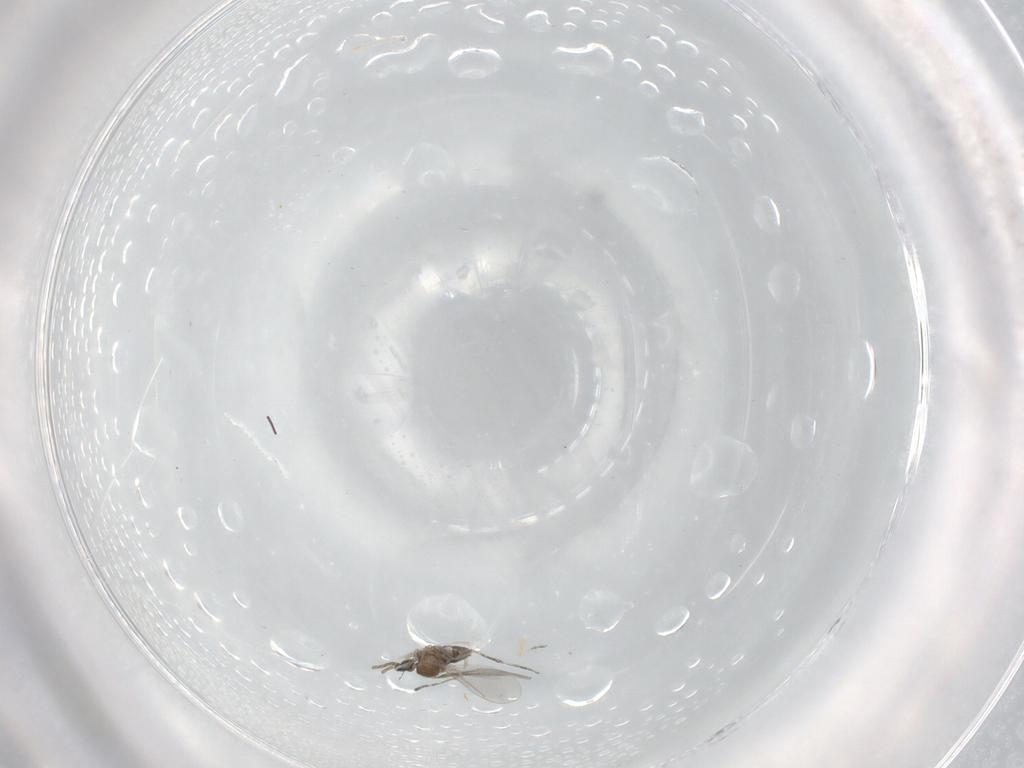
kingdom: Animalia
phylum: Arthropoda
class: Insecta
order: Diptera
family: Cecidomyiidae
